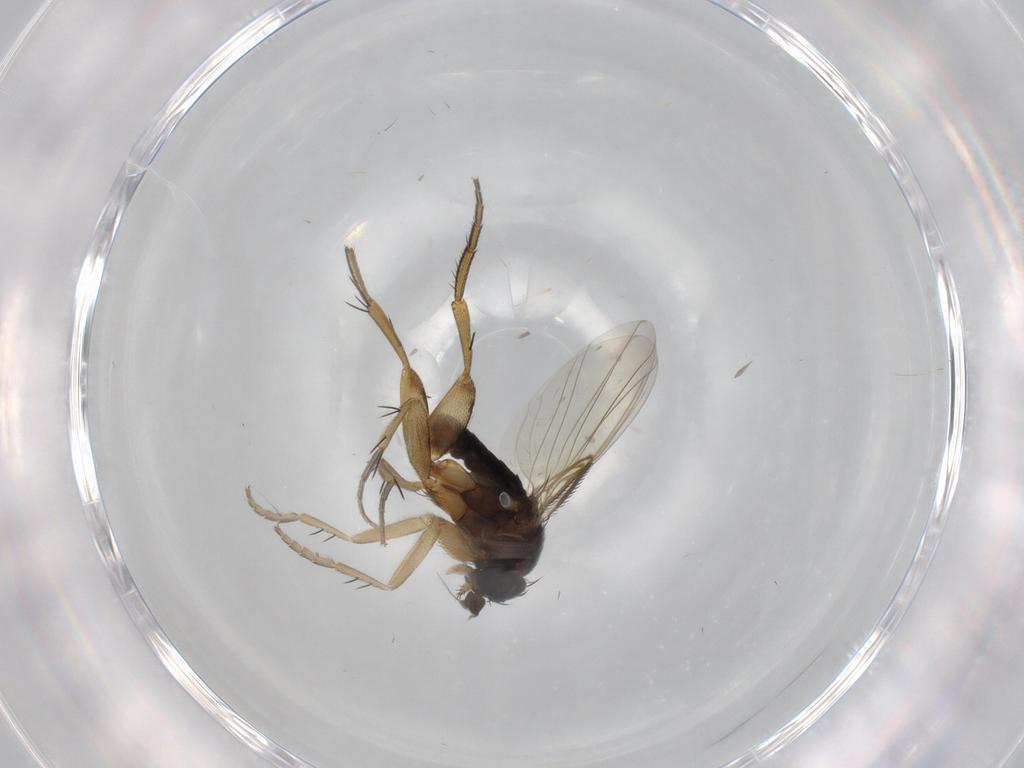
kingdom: Animalia
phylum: Arthropoda
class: Insecta
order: Diptera
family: Phoridae
